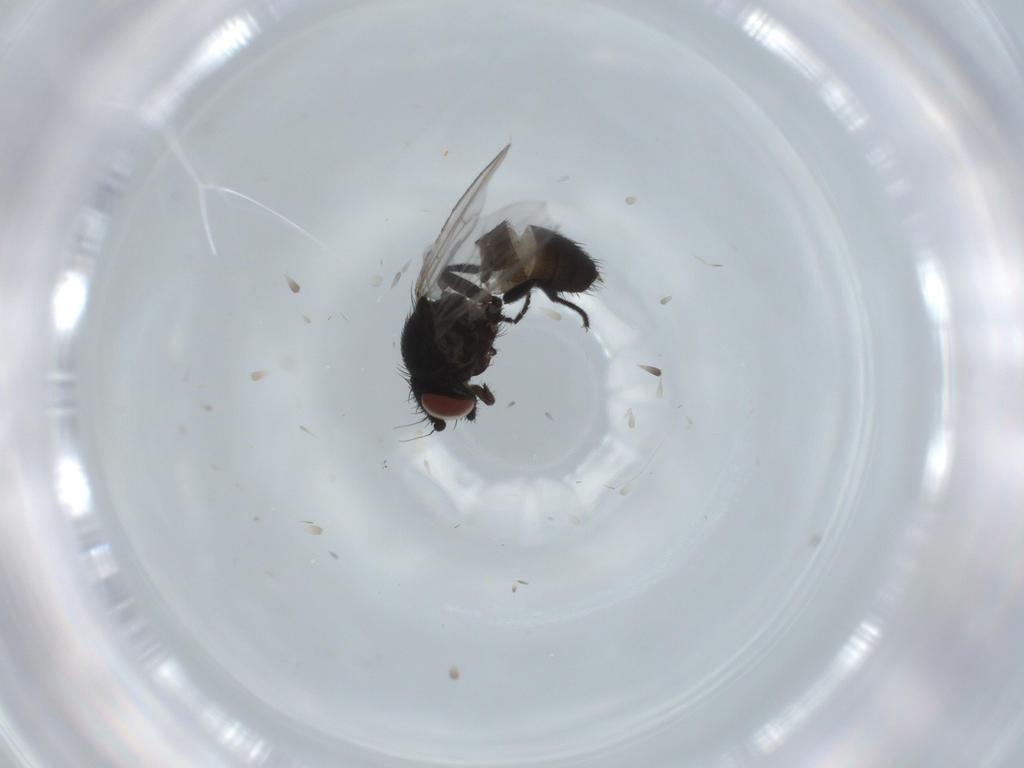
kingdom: Animalia
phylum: Arthropoda
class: Insecta
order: Diptera
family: Milichiidae
